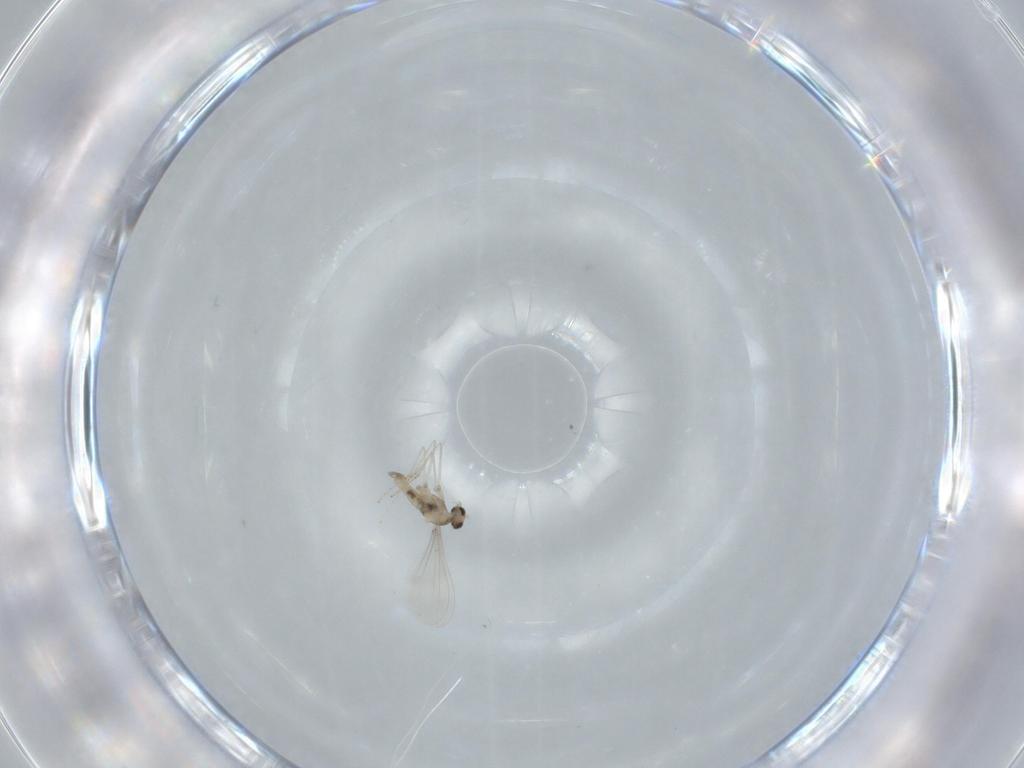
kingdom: Animalia
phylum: Arthropoda
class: Insecta
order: Diptera
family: Cecidomyiidae
